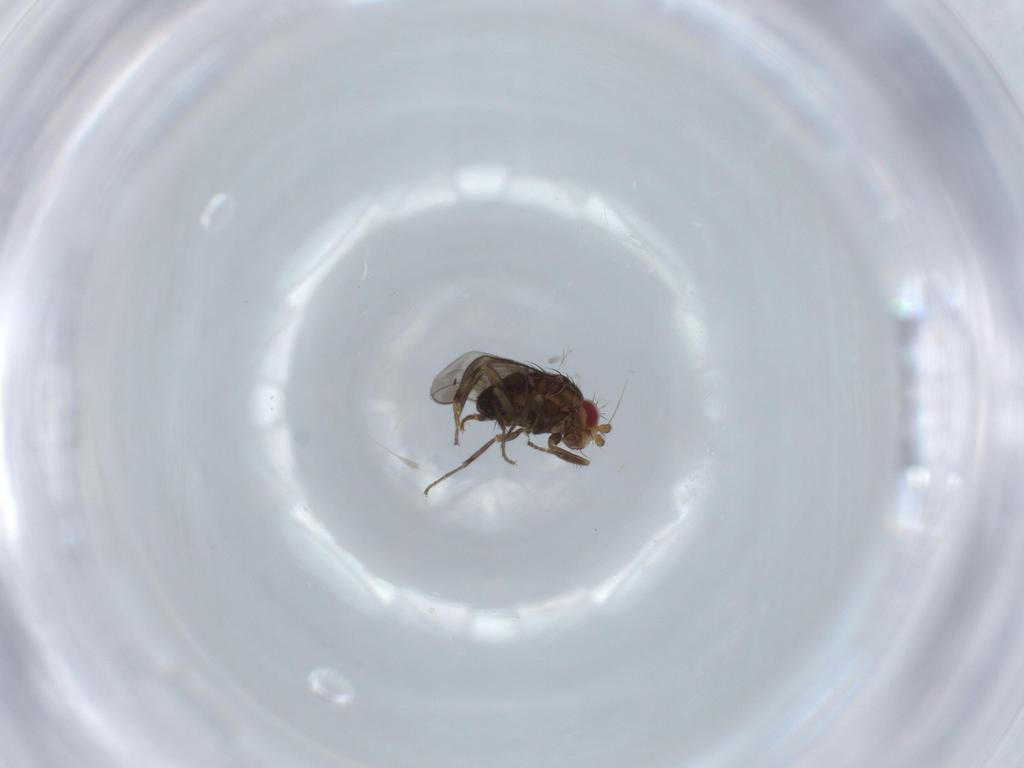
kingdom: Animalia
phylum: Arthropoda
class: Insecta
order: Diptera
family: Sphaeroceridae
